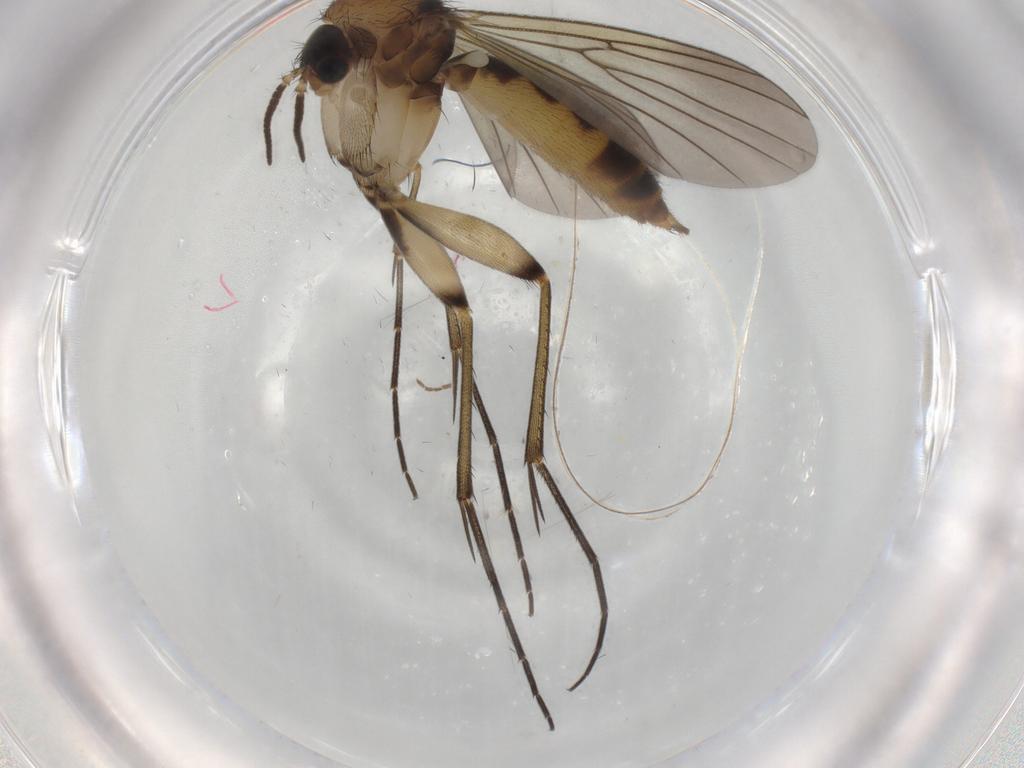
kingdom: Animalia
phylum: Arthropoda
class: Insecta
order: Diptera
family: Mycetophilidae
